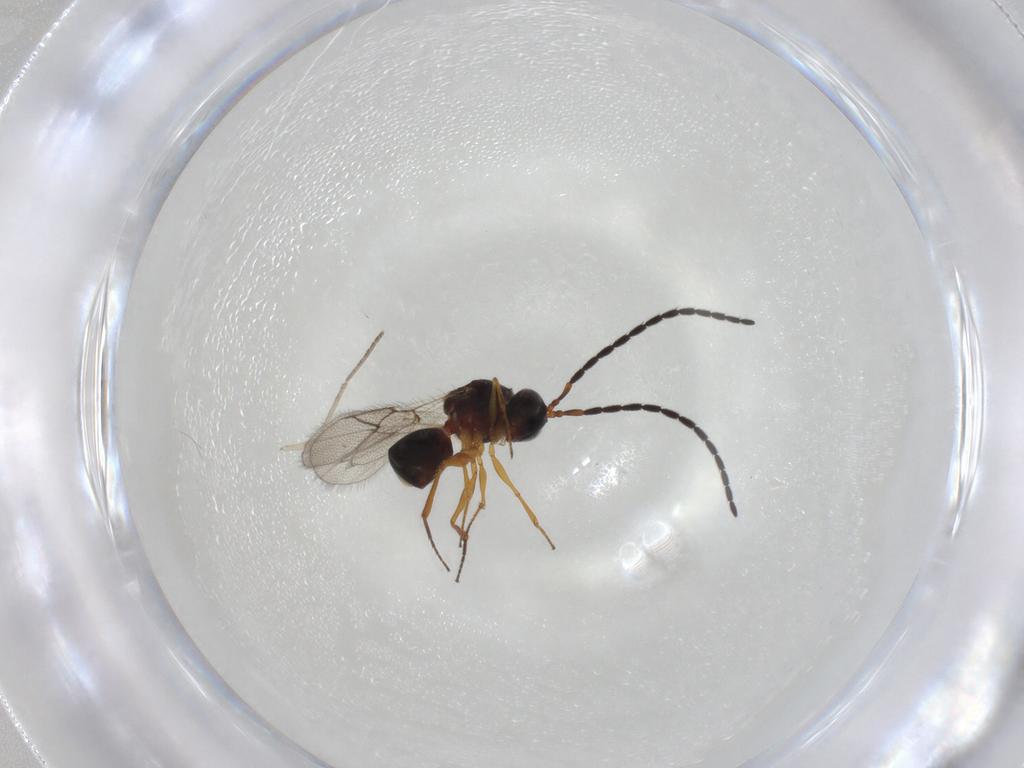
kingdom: Animalia
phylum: Arthropoda
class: Insecta
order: Hymenoptera
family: Figitidae
